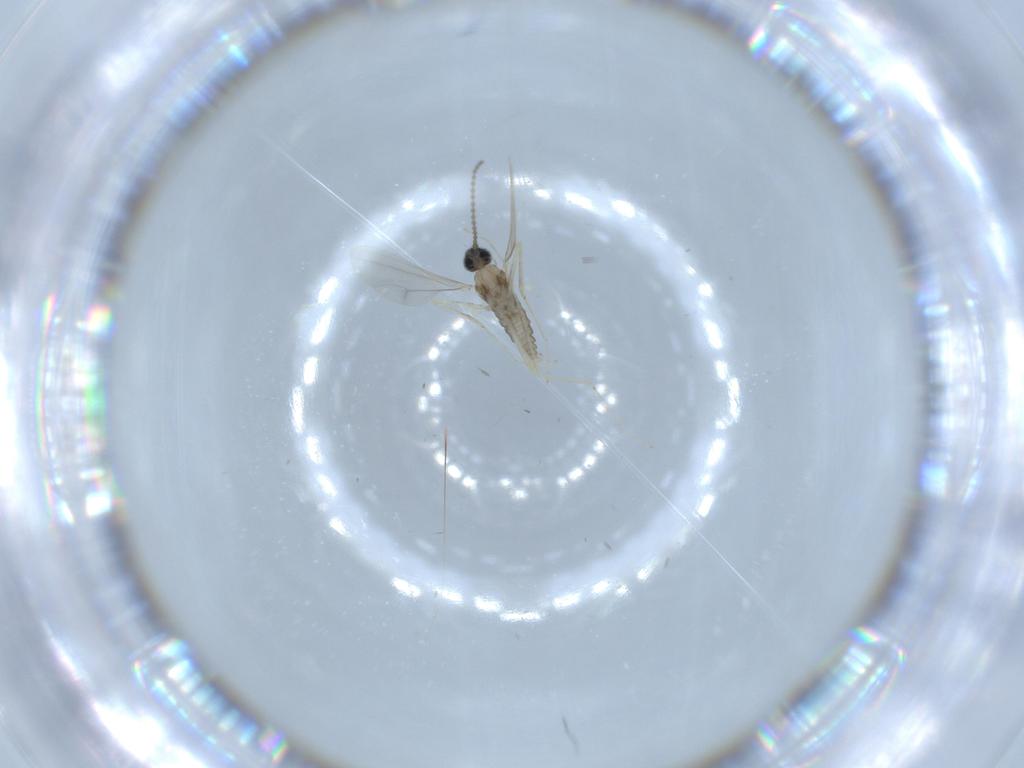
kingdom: Animalia
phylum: Arthropoda
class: Insecta
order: Diptera
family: Cecidomyiidae
